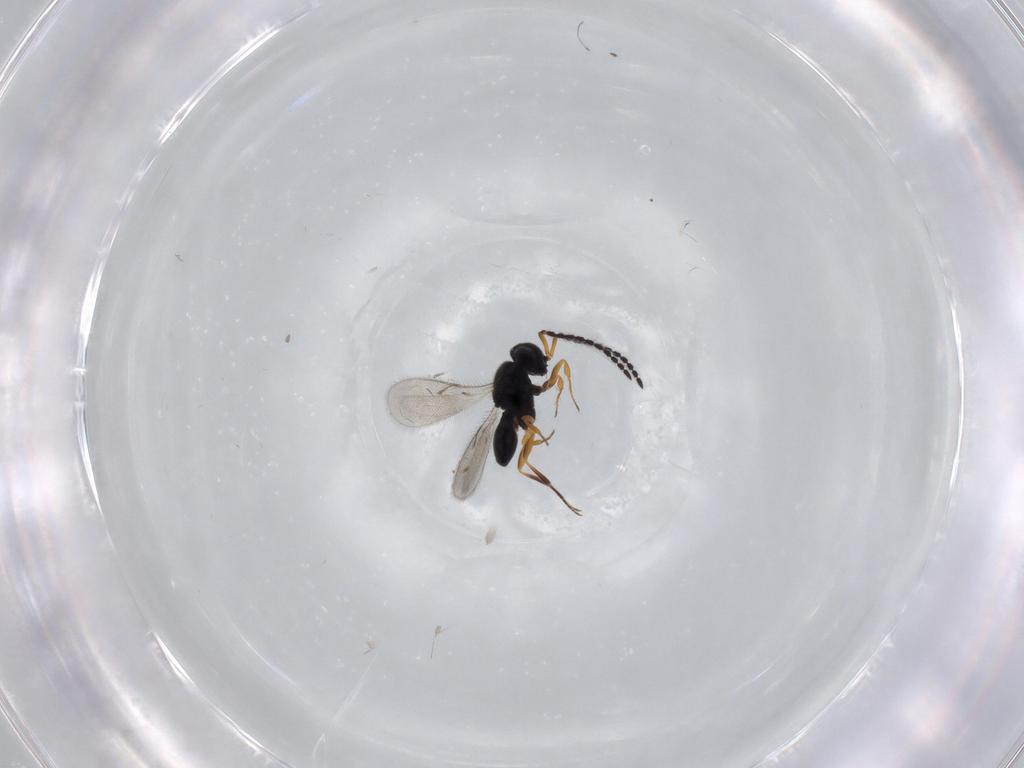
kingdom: Animalia
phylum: Arthropoda
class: Insecta
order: Hymenoptera
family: Scelionidae
